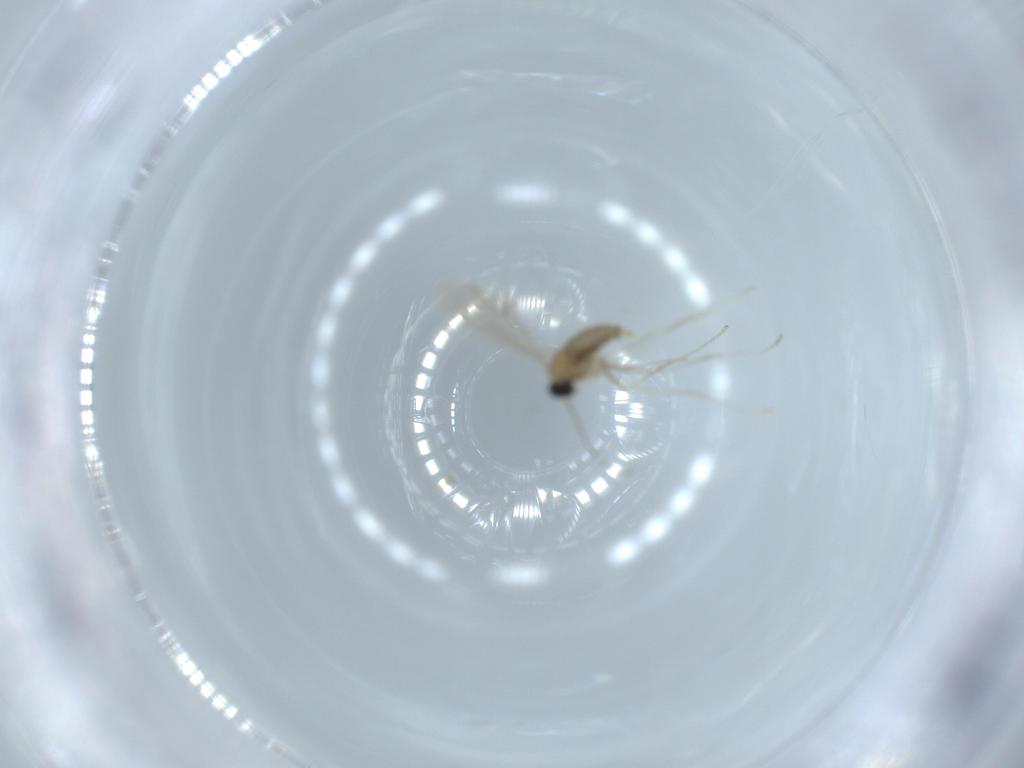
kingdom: Animalia
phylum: Arthropoda
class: Insecta
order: Diptera
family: Cecidomyiidae
